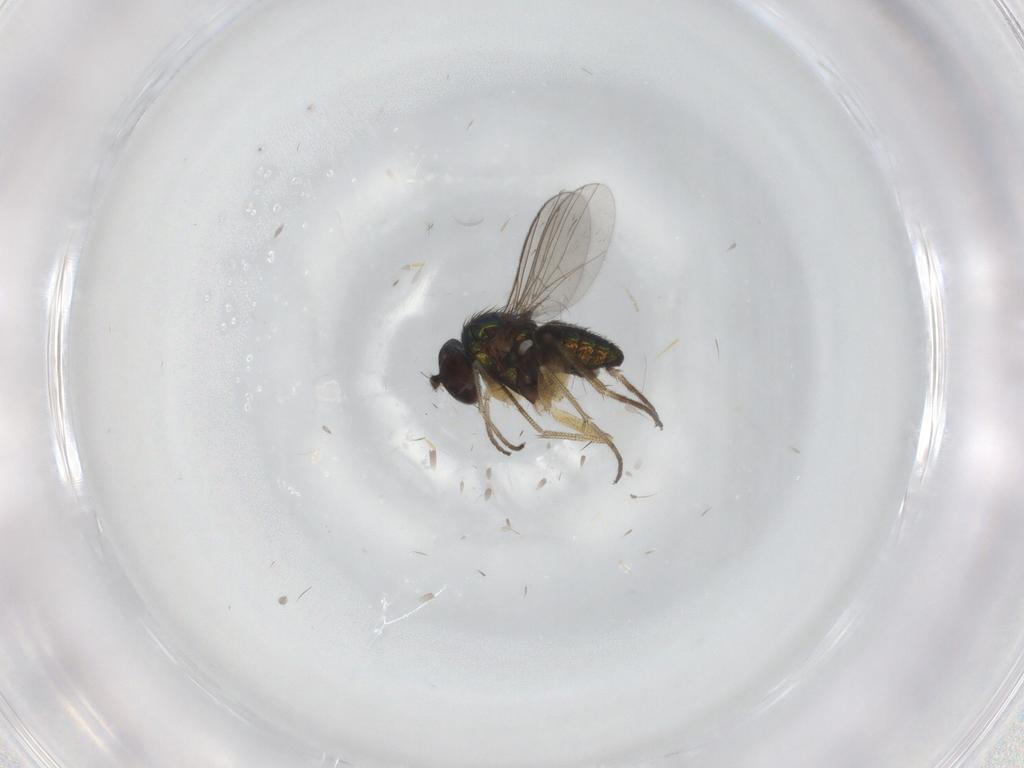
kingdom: Animalia
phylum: Arthropoda
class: Insecta
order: Diptera
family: Dolichopodidae
